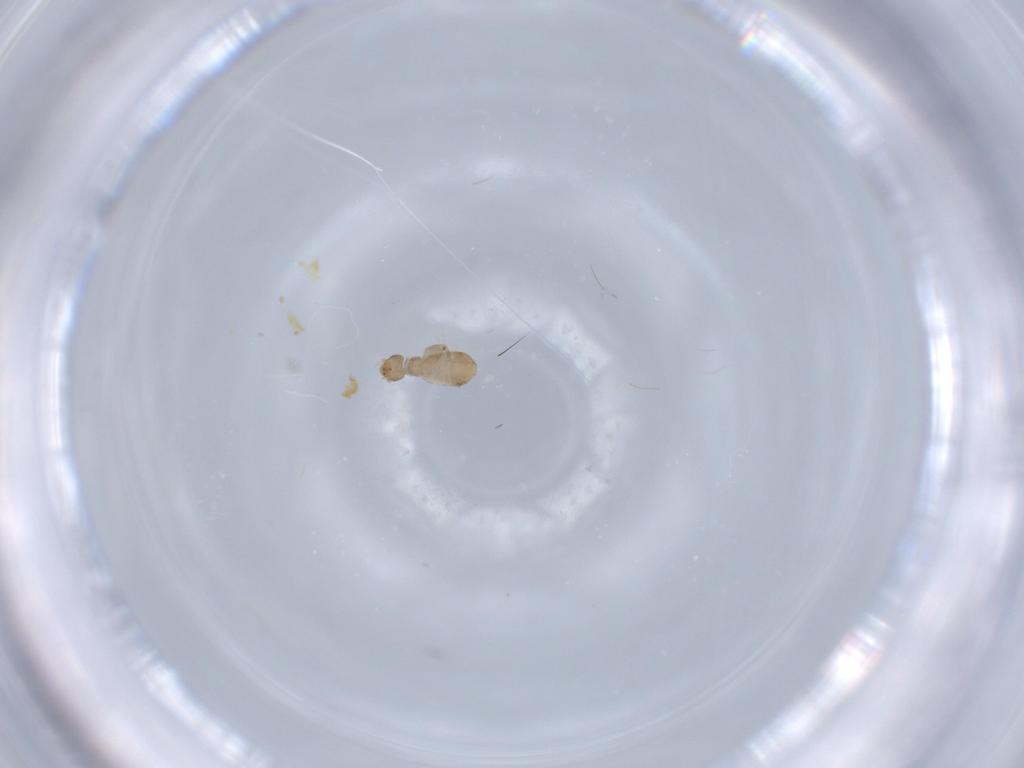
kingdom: Animalia
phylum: Arthropoda
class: Insecta
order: Psocodea
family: Liposcelididae
